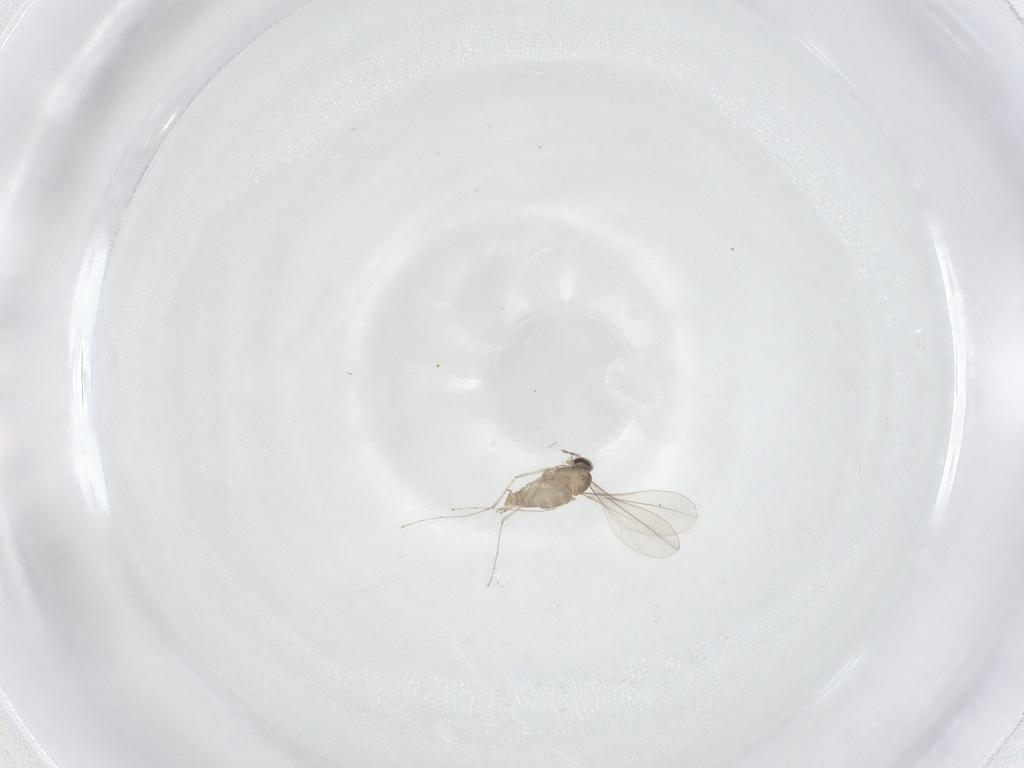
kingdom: Animalia
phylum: Arthropoda
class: Insecta
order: Diptera
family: Cecidomyiidae
